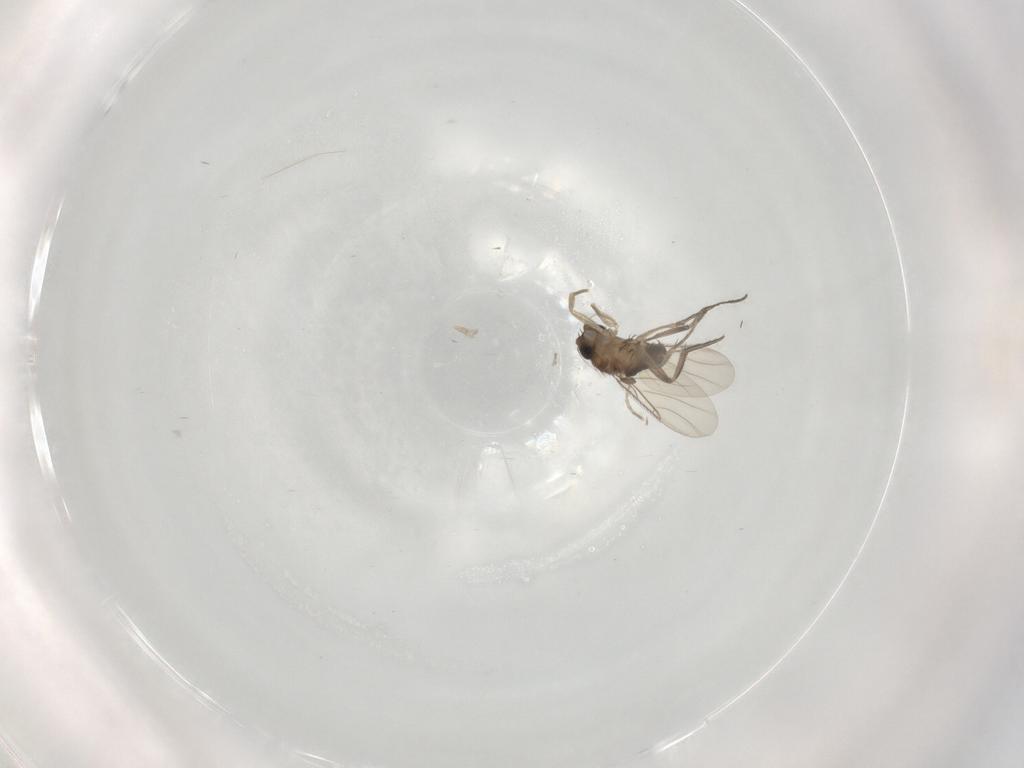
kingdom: Animalia
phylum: Arthropoda
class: Insecta
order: Diptera
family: Phoridae
